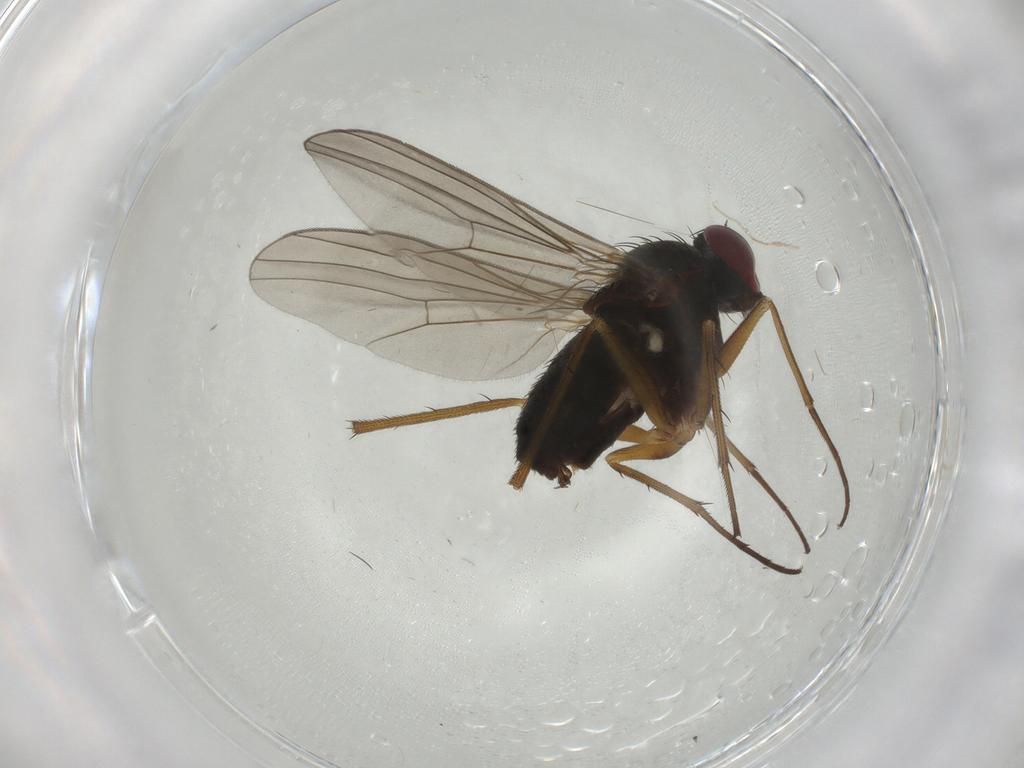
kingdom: Animalia
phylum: Arthropoda
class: Insecta
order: Diptera
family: Dolichopodidae
